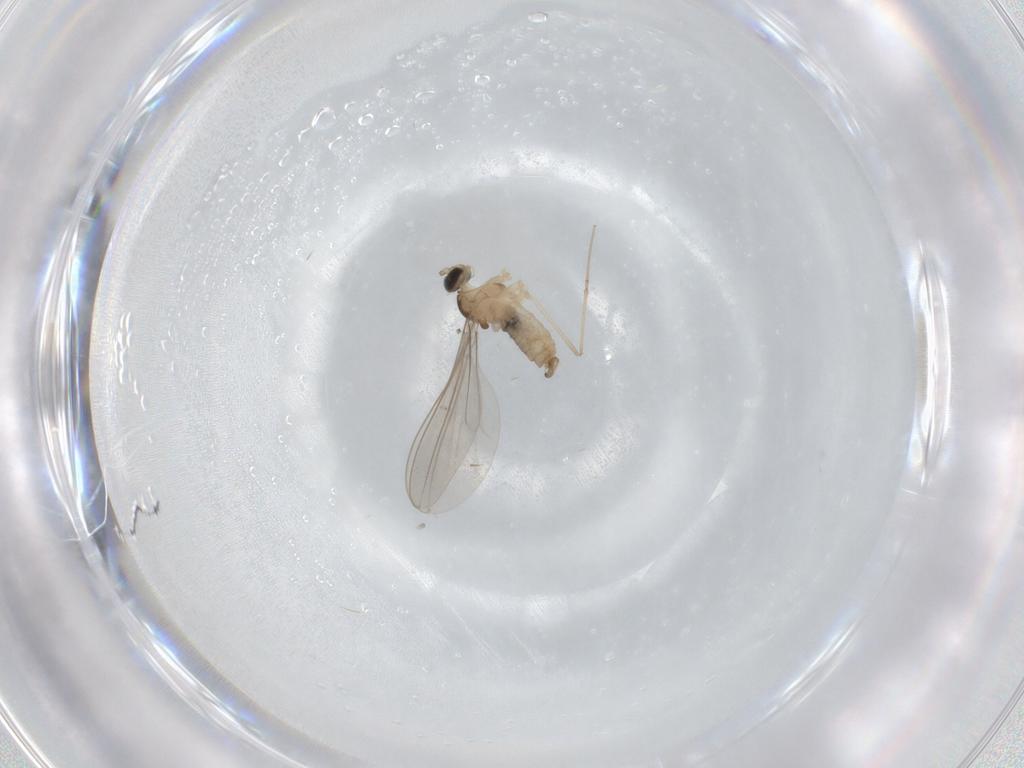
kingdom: Animalia
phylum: Arthropoda
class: Insecta
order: Diptera
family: Cecidomyiidae
